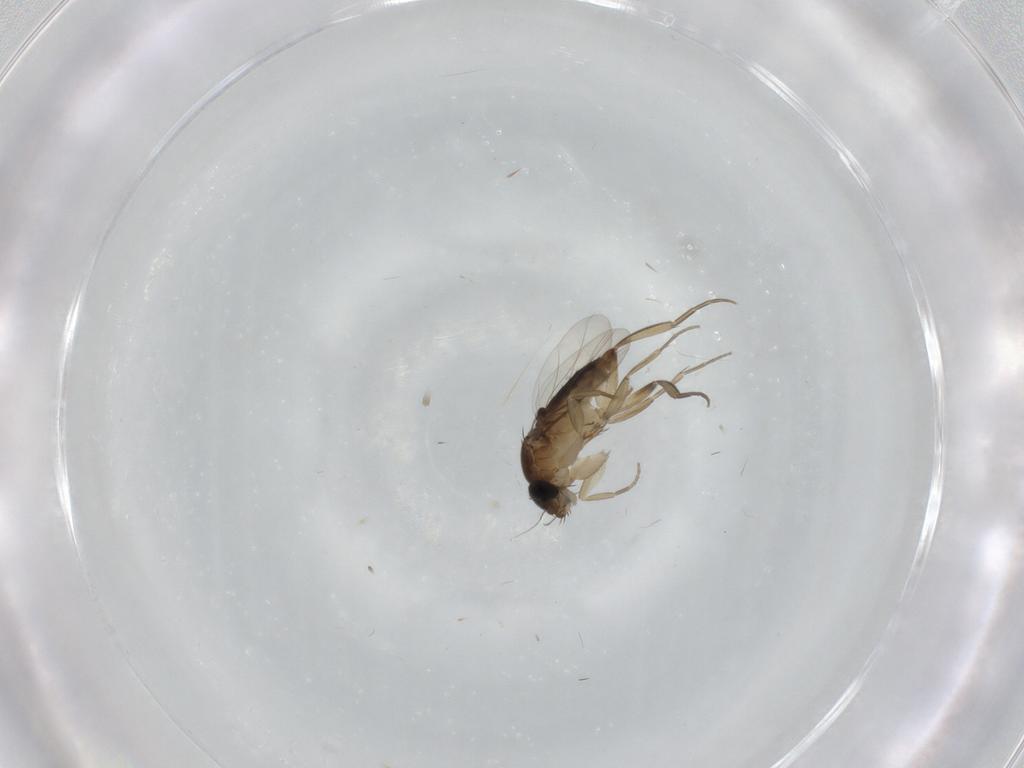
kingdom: Animalia
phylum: Arthropoda
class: Insecta
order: Diptera
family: Phoridae
